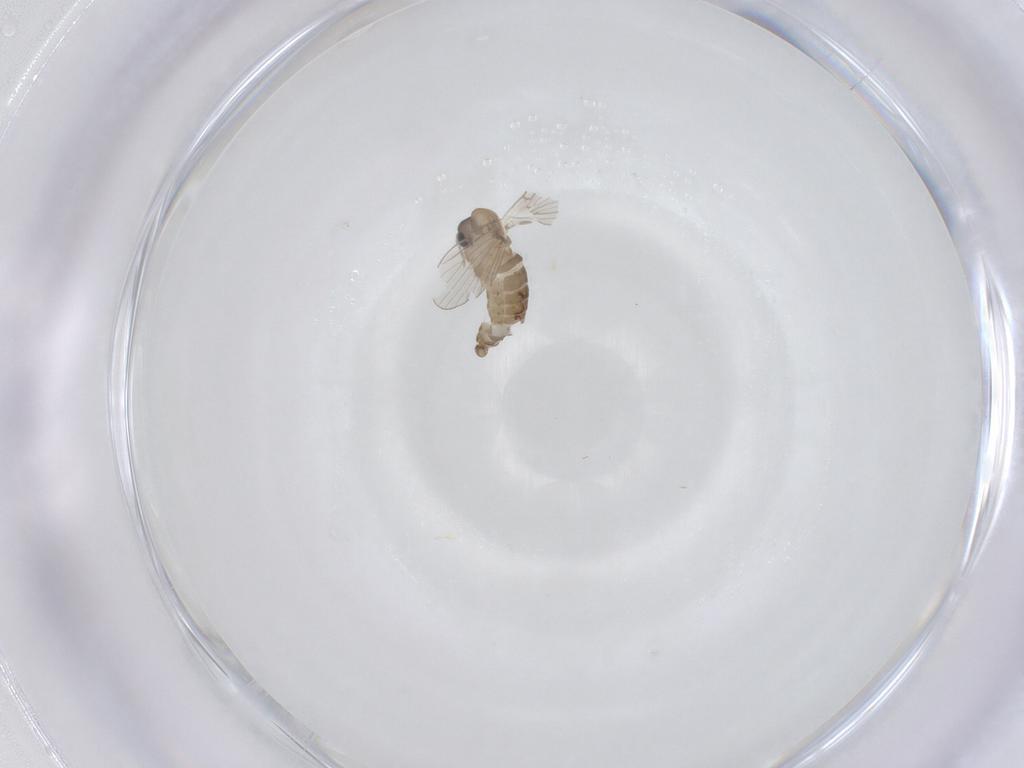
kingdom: Animalia
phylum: Arthropoda
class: Insecta
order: Diptera
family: Psychodidae
